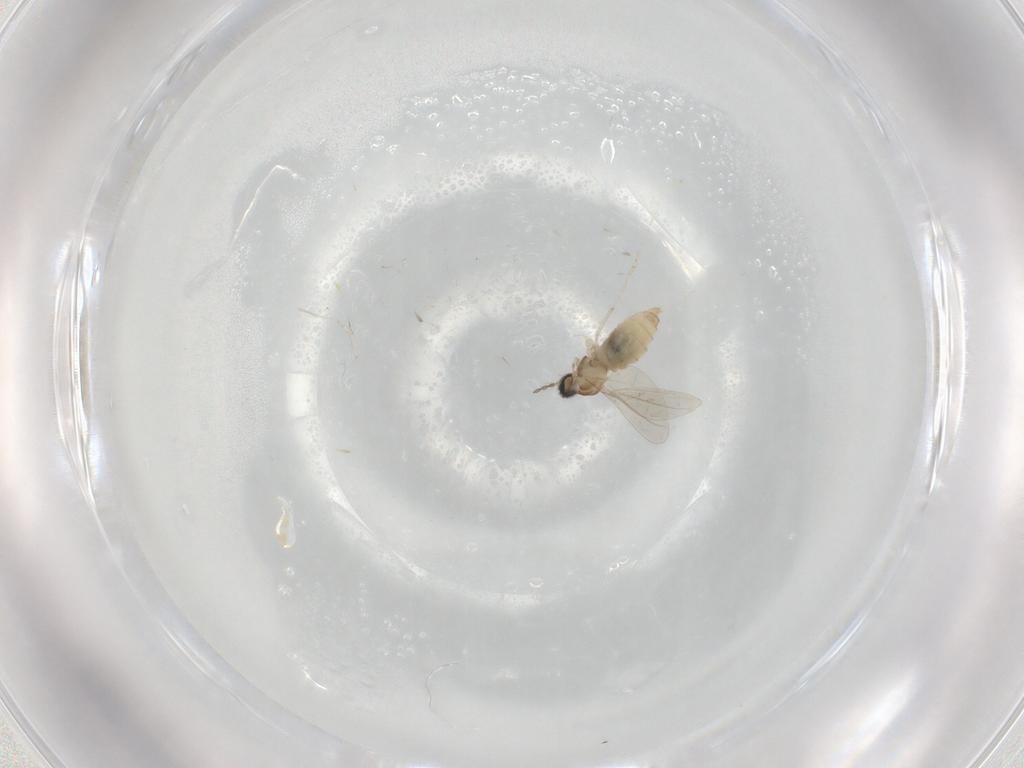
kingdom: Animalia
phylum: Arthropoda
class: Insecta
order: Diptera
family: Cecidomyiidae
